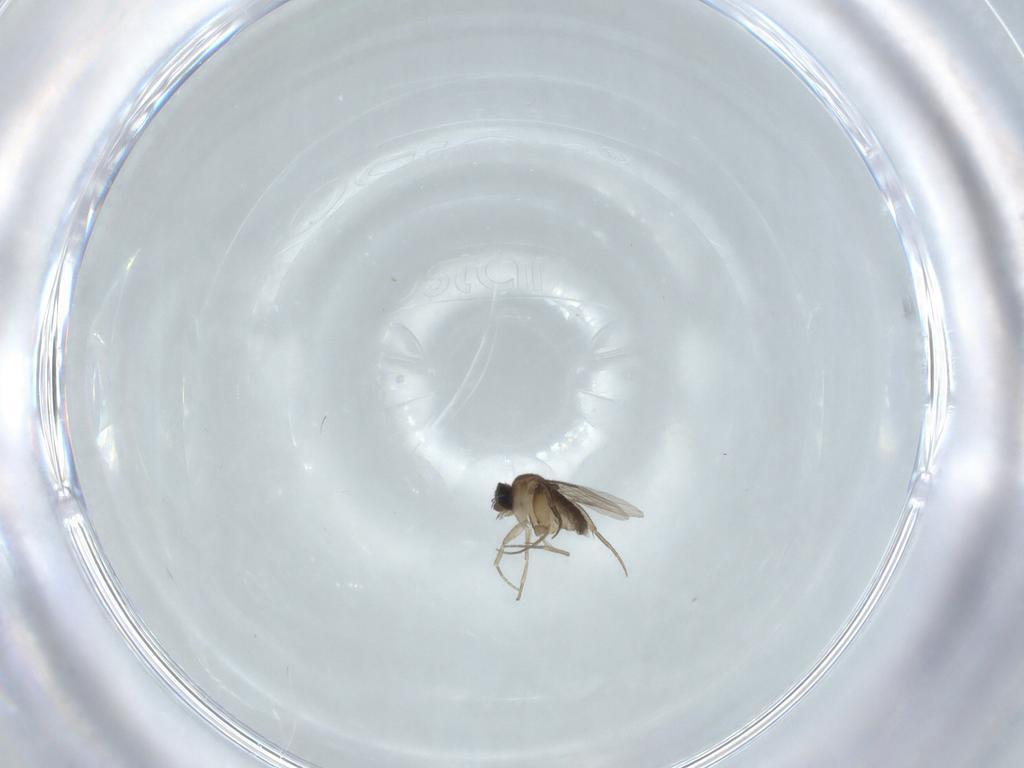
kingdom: Animalia
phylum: Arthropoda
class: Insecta
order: Diptera
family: Phoridae
